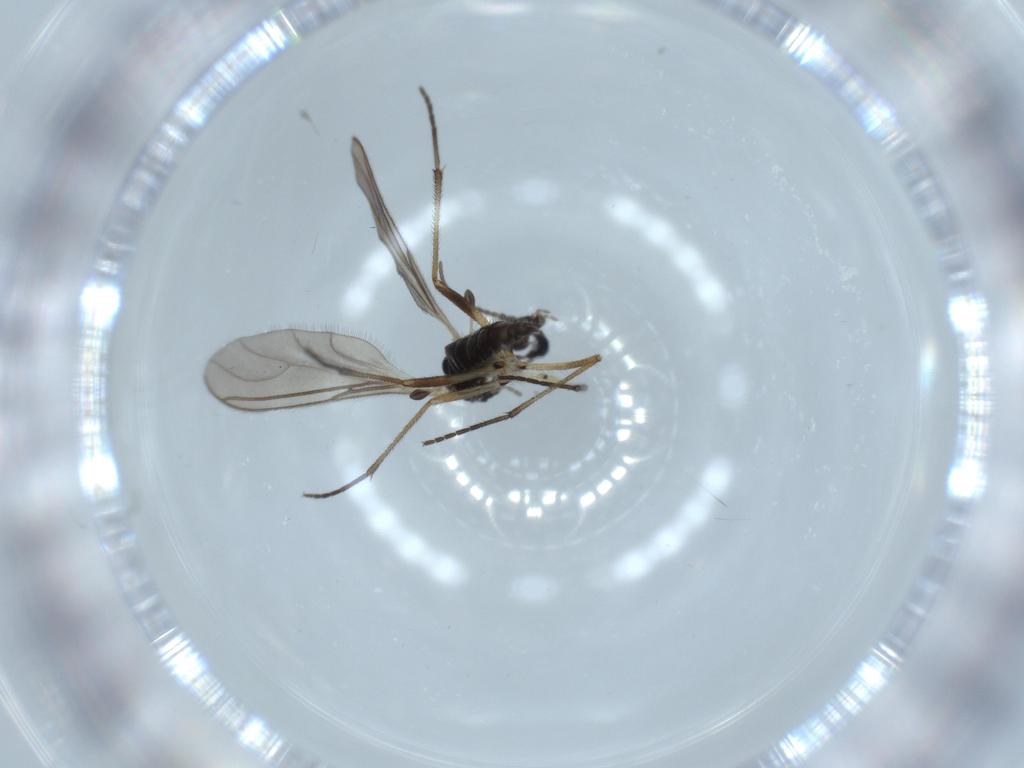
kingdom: Animalia
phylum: Arthropoda
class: Insecta
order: Diptera
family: Sciaridae
